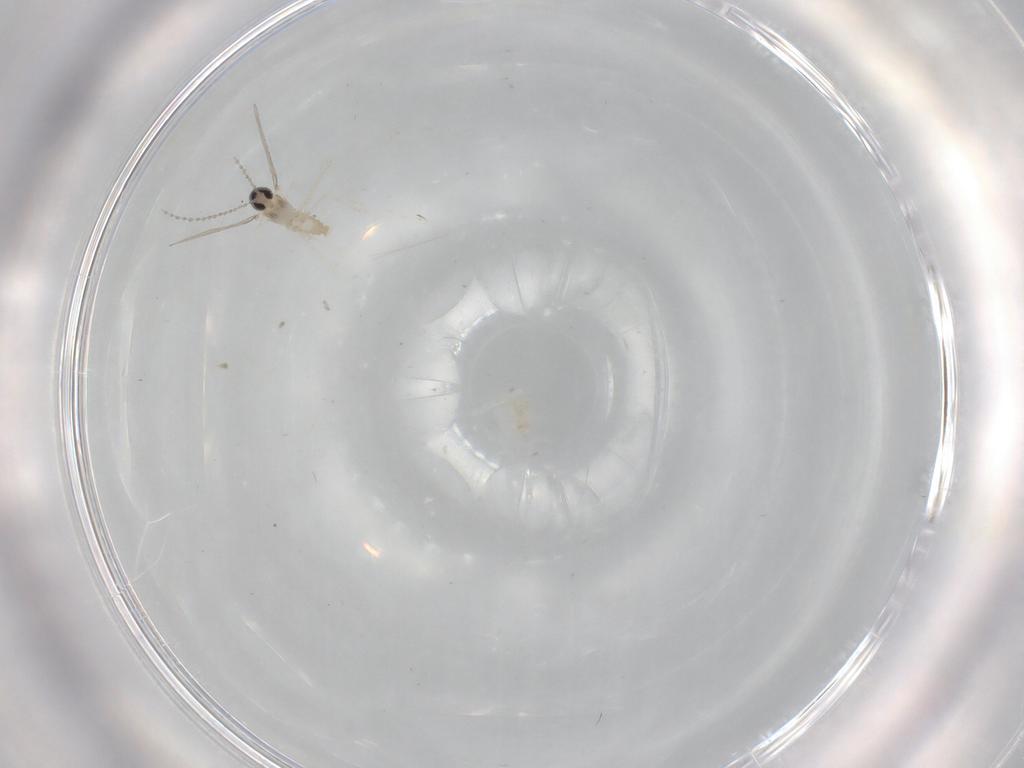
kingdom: Animalia
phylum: Arthropoda
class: Insecta
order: Diptera
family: Cecidomyiidae
